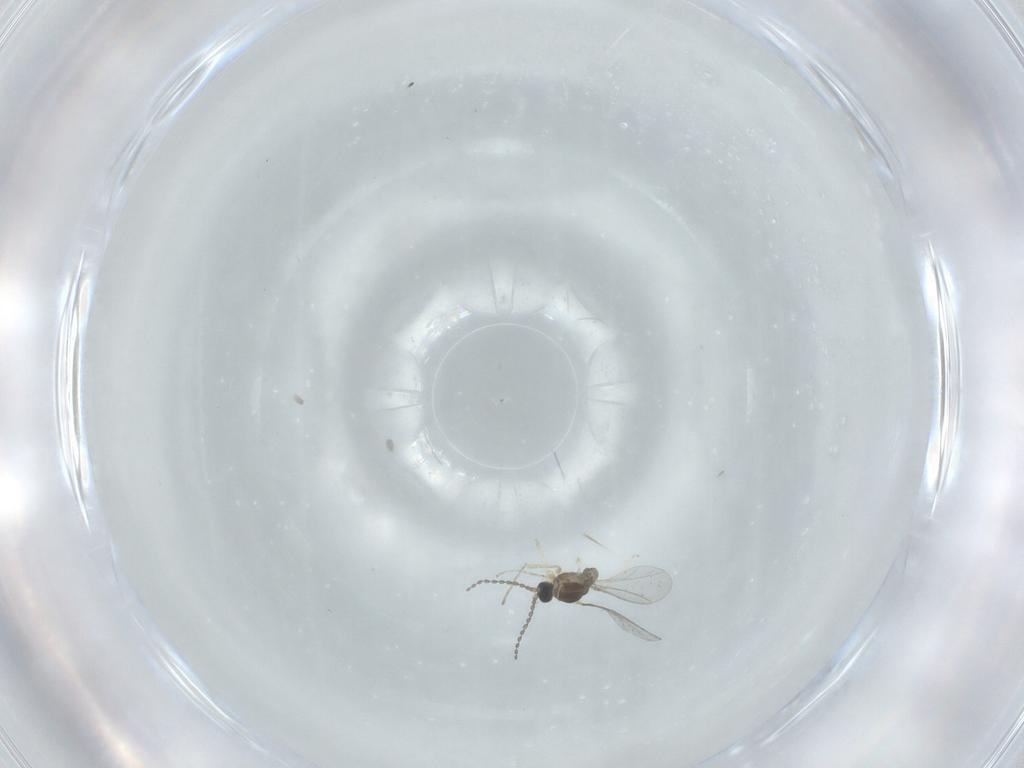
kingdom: Animalia
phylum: Arthropoda
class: Insecta
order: Diptera
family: Cecidomyiidae
